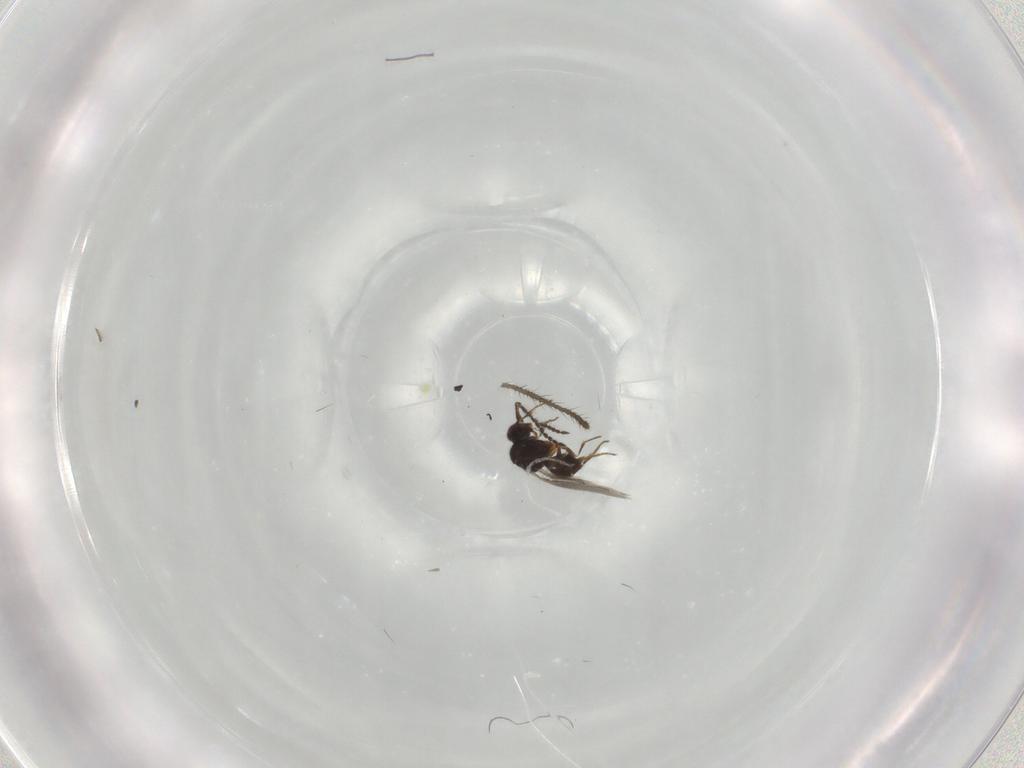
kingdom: Animalia
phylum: Arthropoda
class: Insecta
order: Hymenoptera
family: Ceraphronidae
